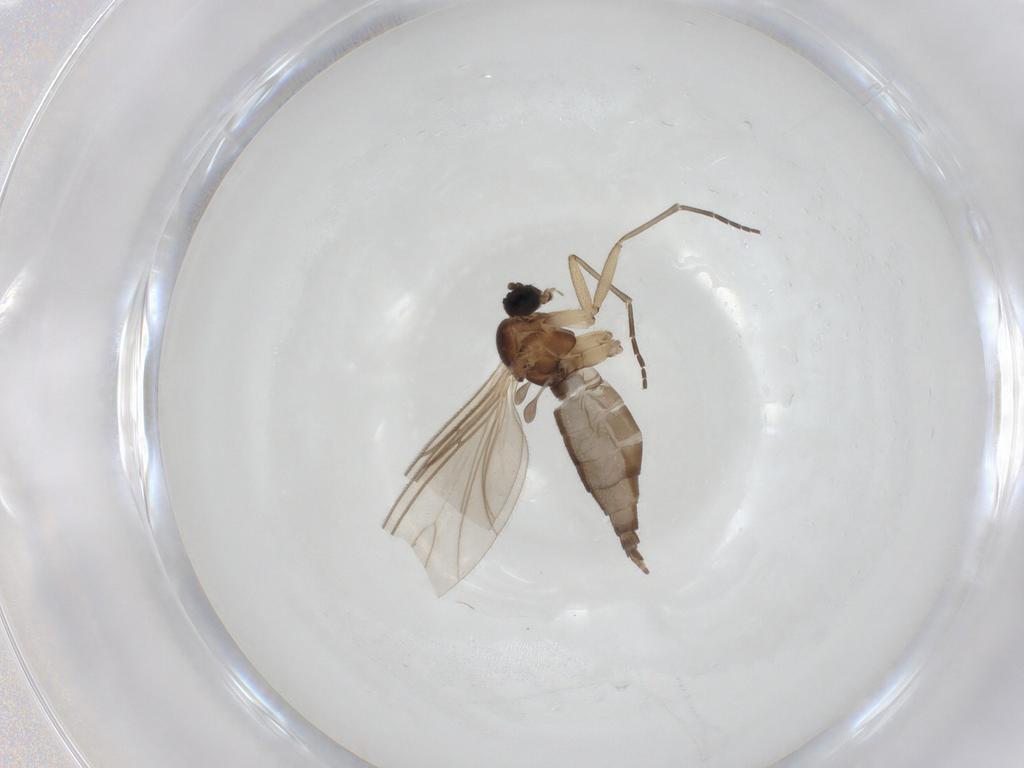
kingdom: Animalia
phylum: Arthropoda
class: Insecta
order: Diptera
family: Sciaridae
